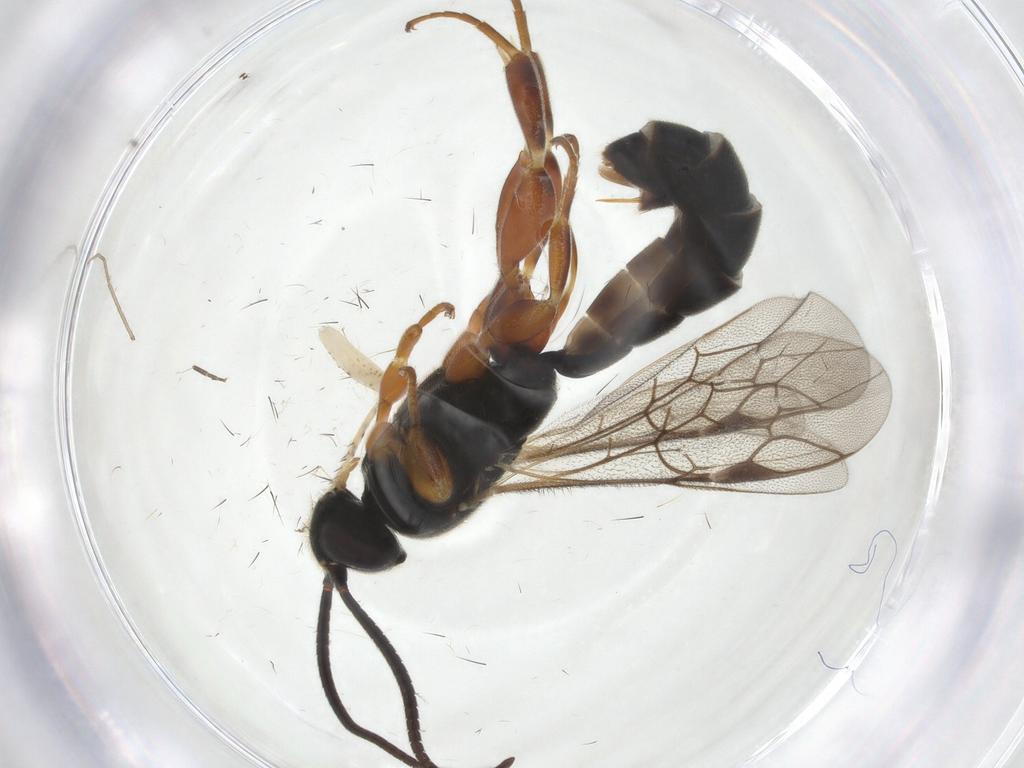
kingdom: Animalia
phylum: Arthropoda
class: Insecta
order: Hymenoptera
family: Ichneumonidae
